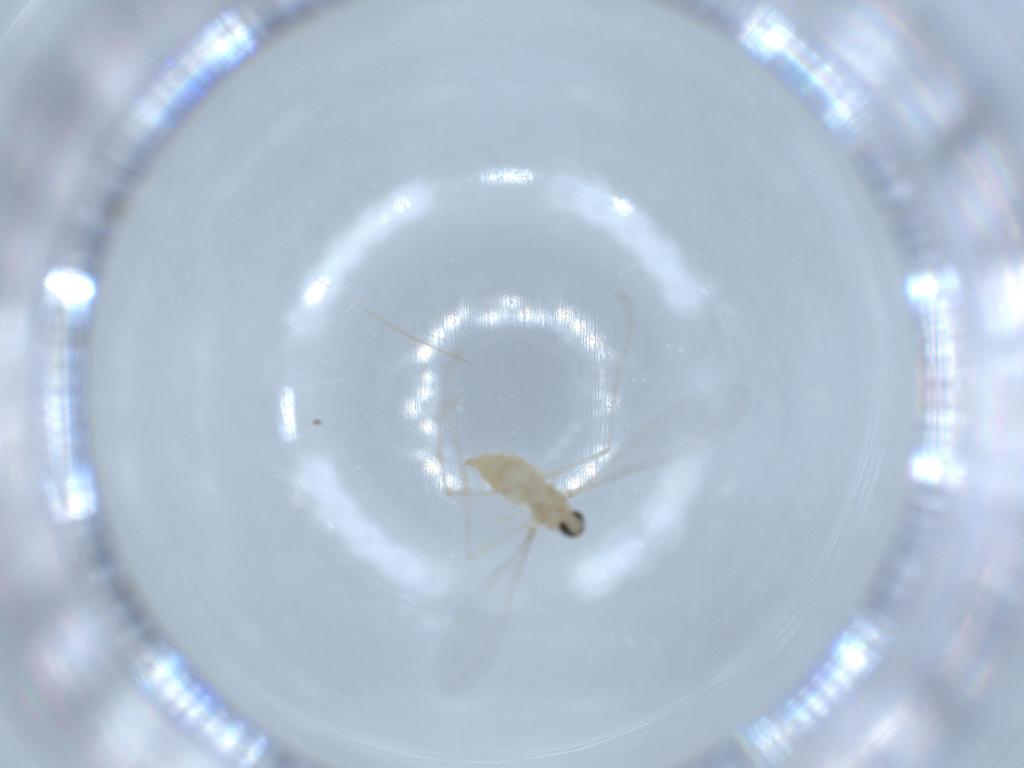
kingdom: Animalia
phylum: Arthropoda
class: Insecta
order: Diptera
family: Cecidomyiidae
